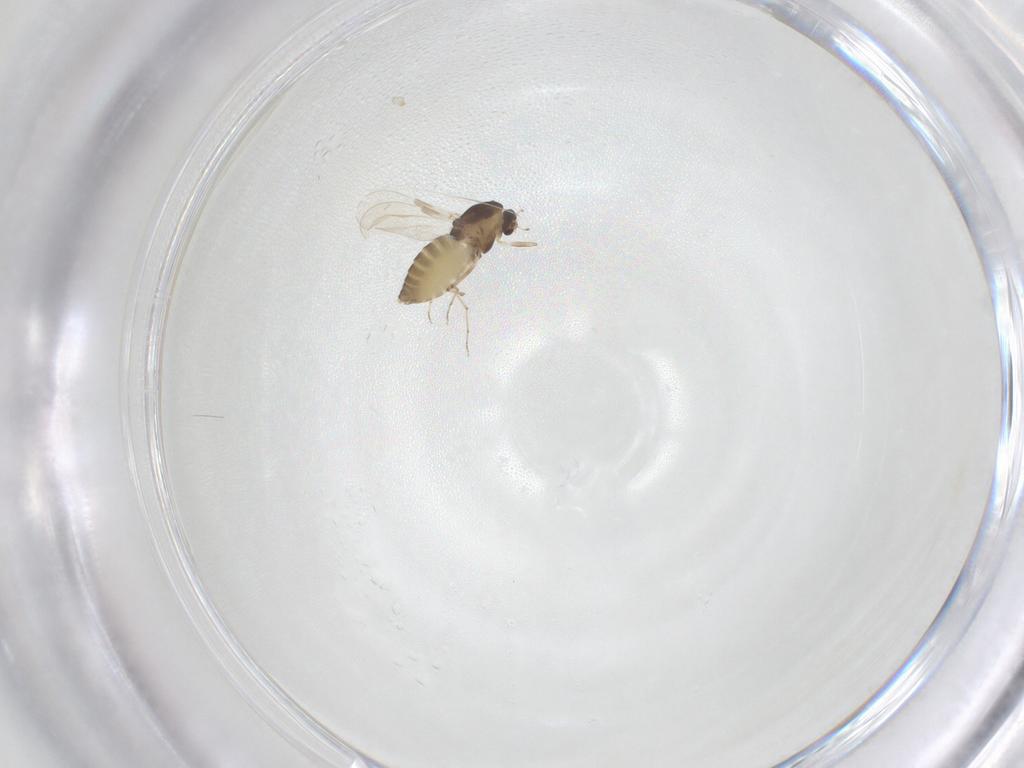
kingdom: Animalia
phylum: Arthropoda
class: Insecta
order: Diptera
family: Chironomidae
